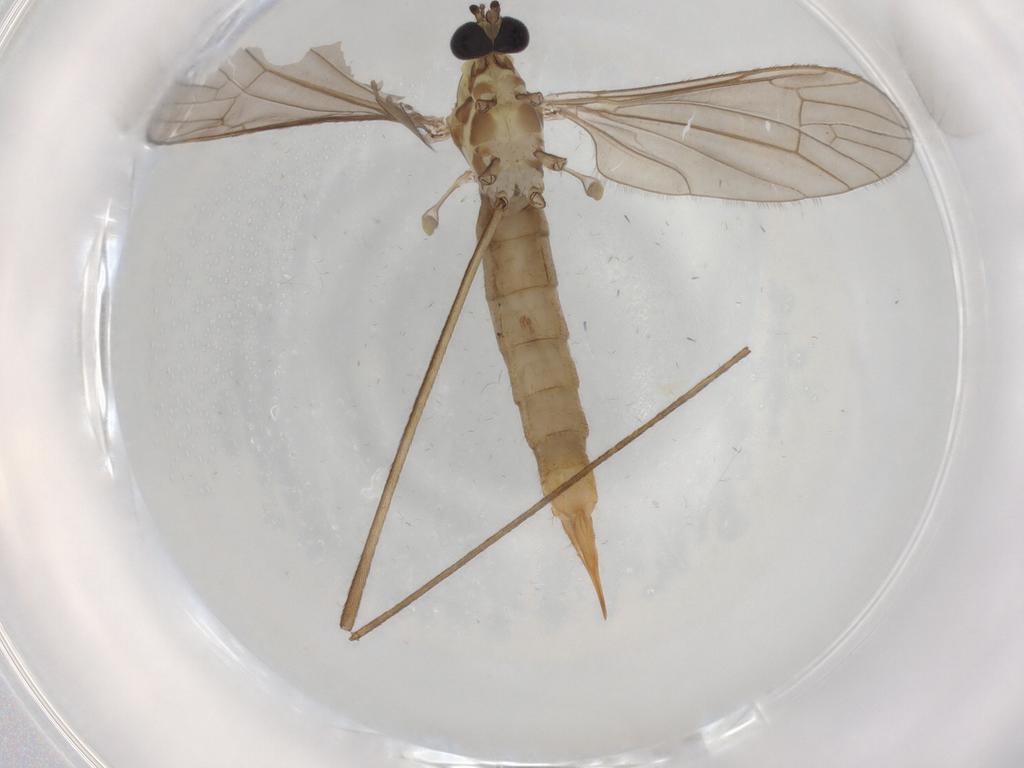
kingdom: Animalia
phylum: Arthropoda
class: Insecta
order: Diptera
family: Limoniidae
